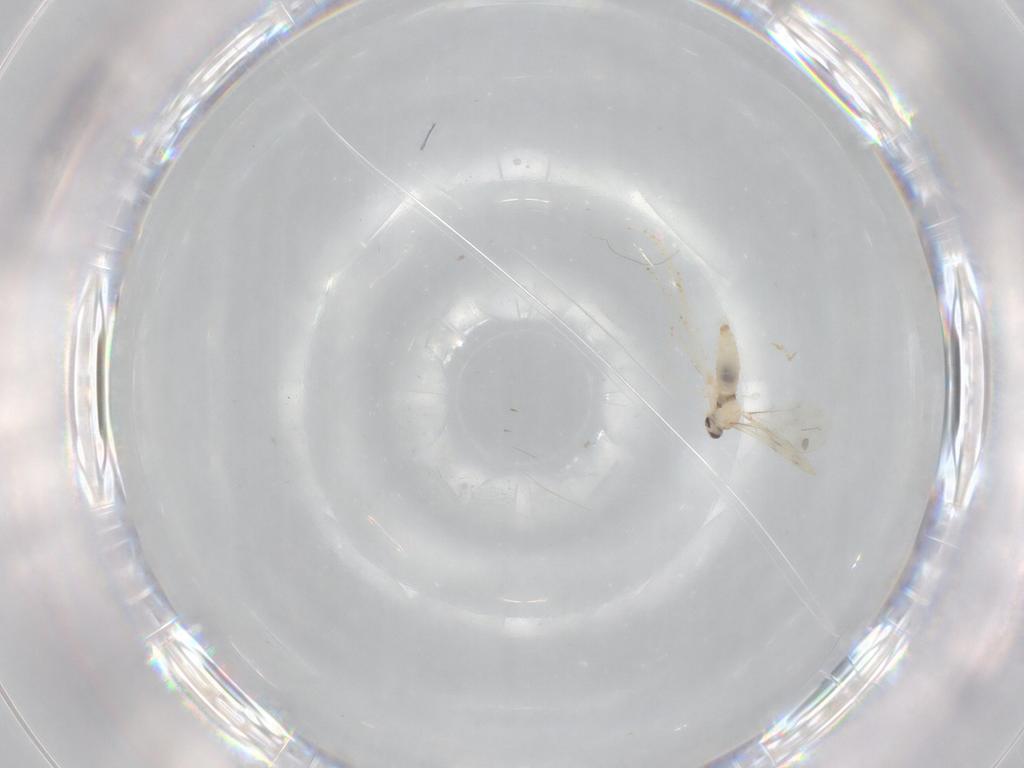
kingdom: Animalia
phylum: Arthropoda
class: Insecta
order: Diptera
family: Cecidomyiidae
